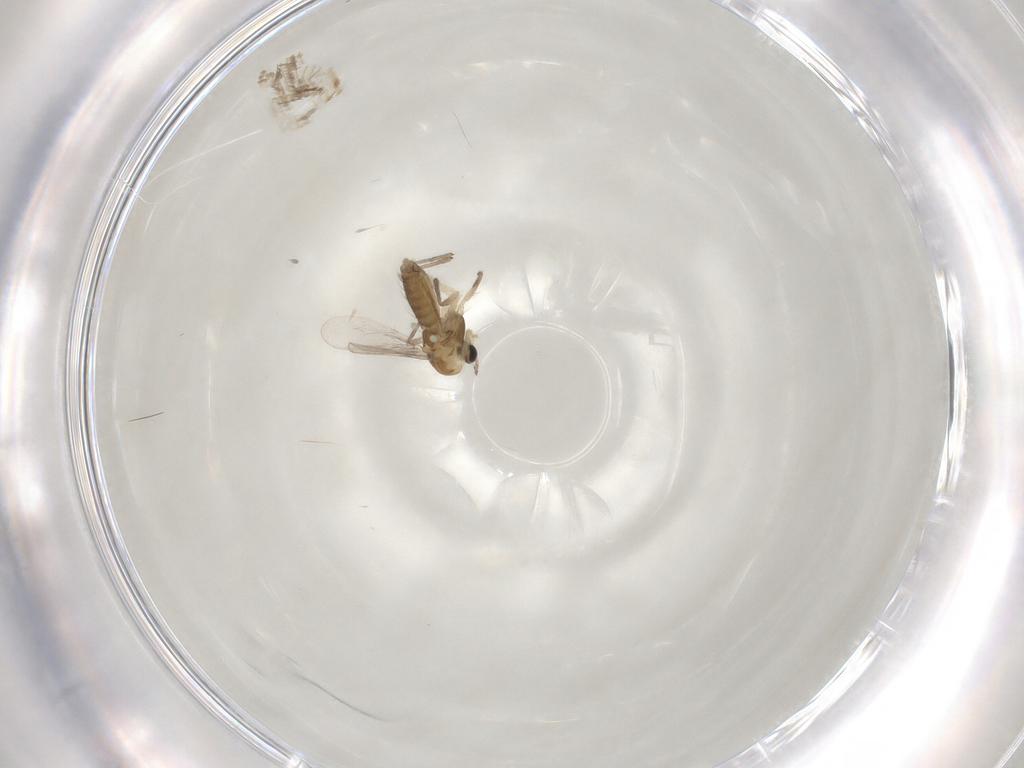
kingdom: Animalia
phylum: Arthropoda
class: Insecta
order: Diptera
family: Chironomidae
